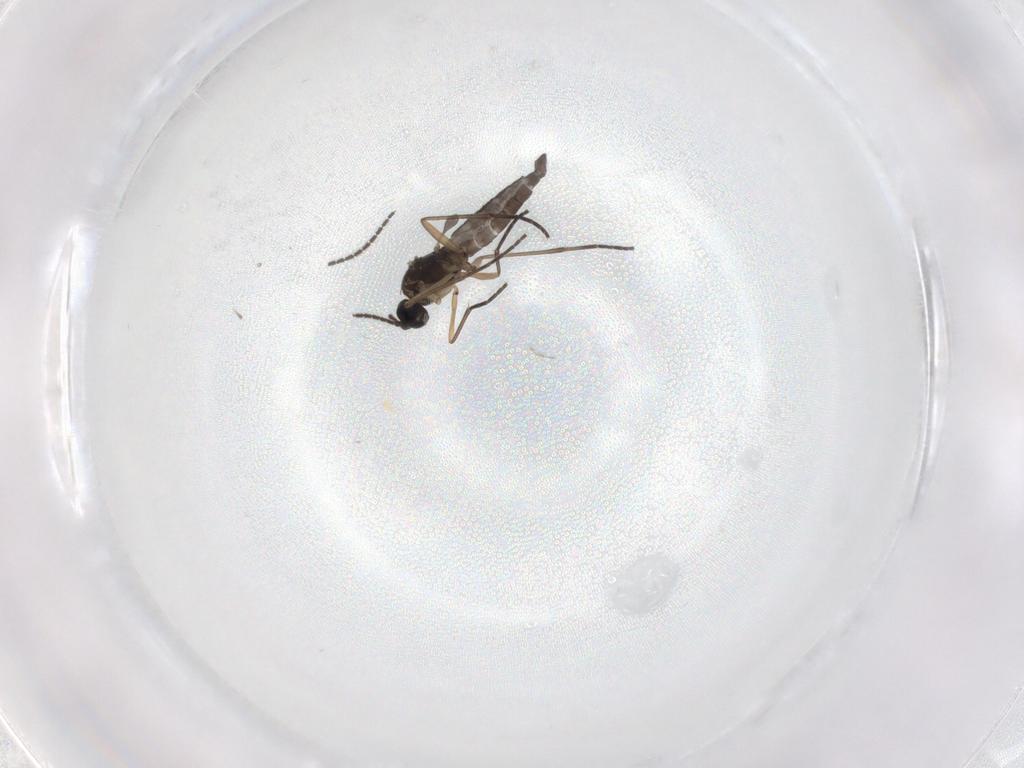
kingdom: Animalia
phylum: Arthropoda
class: Insecta
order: Diptera
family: Sciaridae
